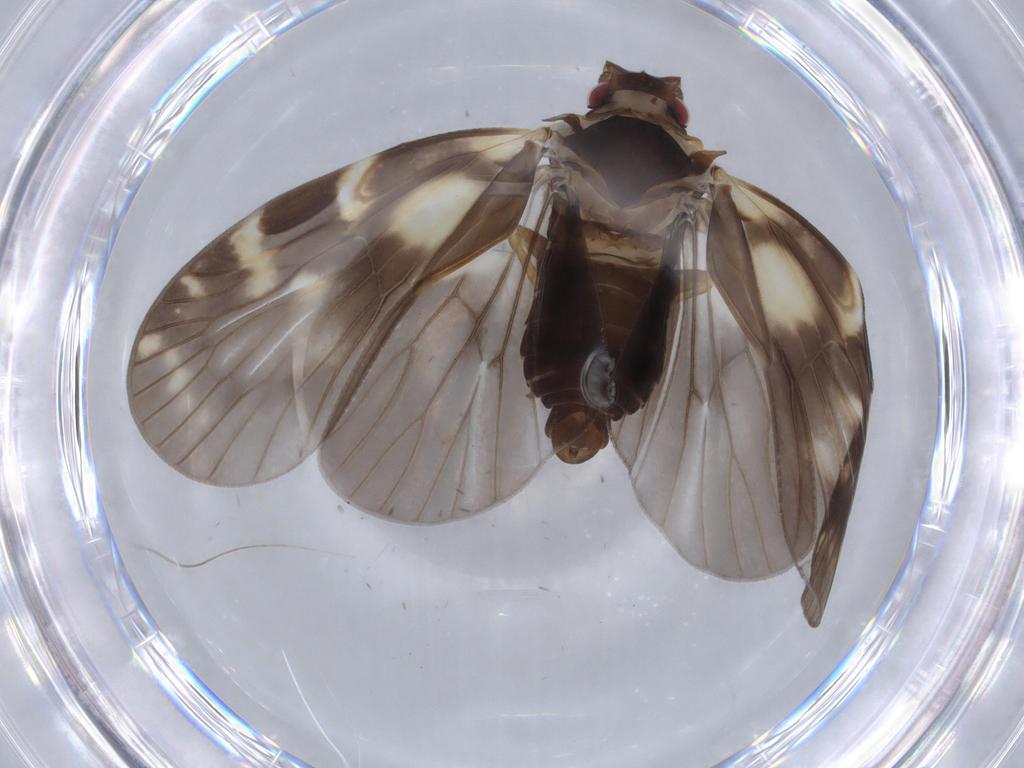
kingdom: Animalia
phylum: Arthropoda
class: Insecta
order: Hemiptera
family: Cixiidae
